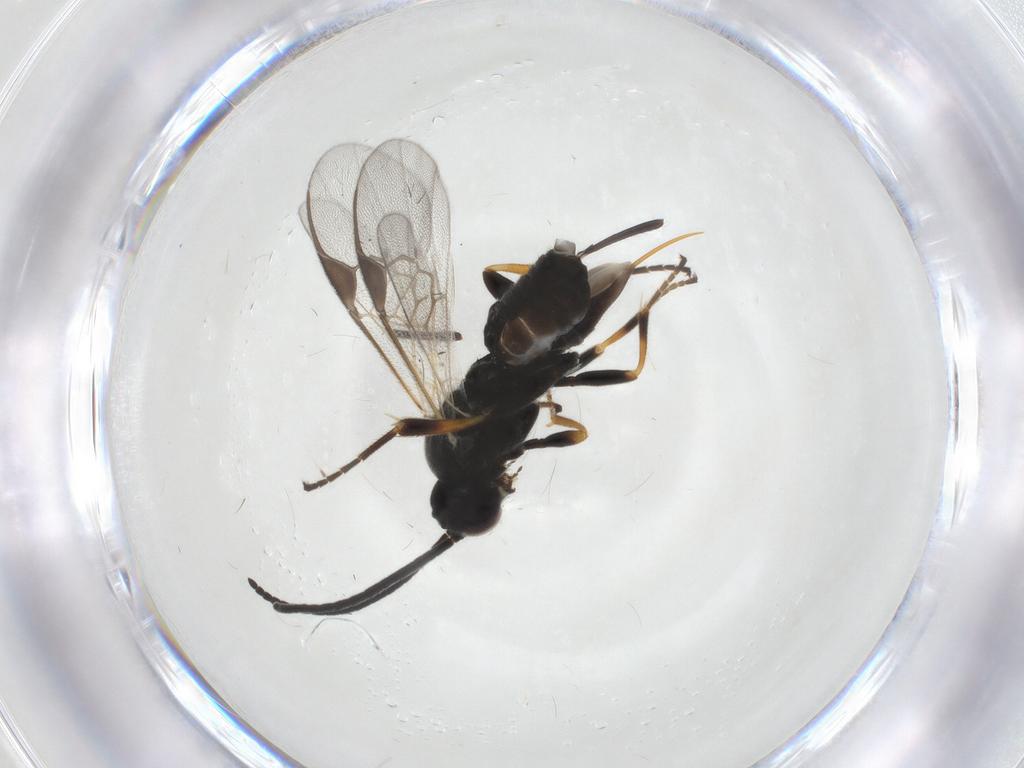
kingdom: Animalia
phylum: Arthropoda
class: Insecta
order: Hymenoptera
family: Braconidae
